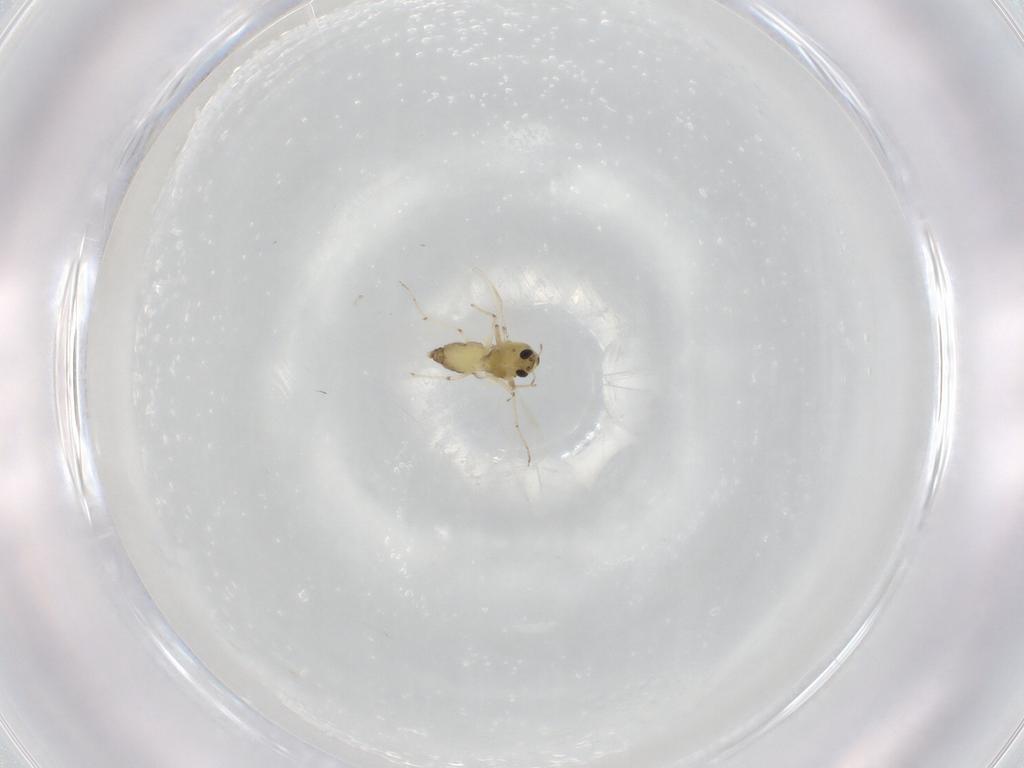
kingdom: Animalia
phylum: Arthropoda
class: Insecta
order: Diptera
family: Chironomidae
